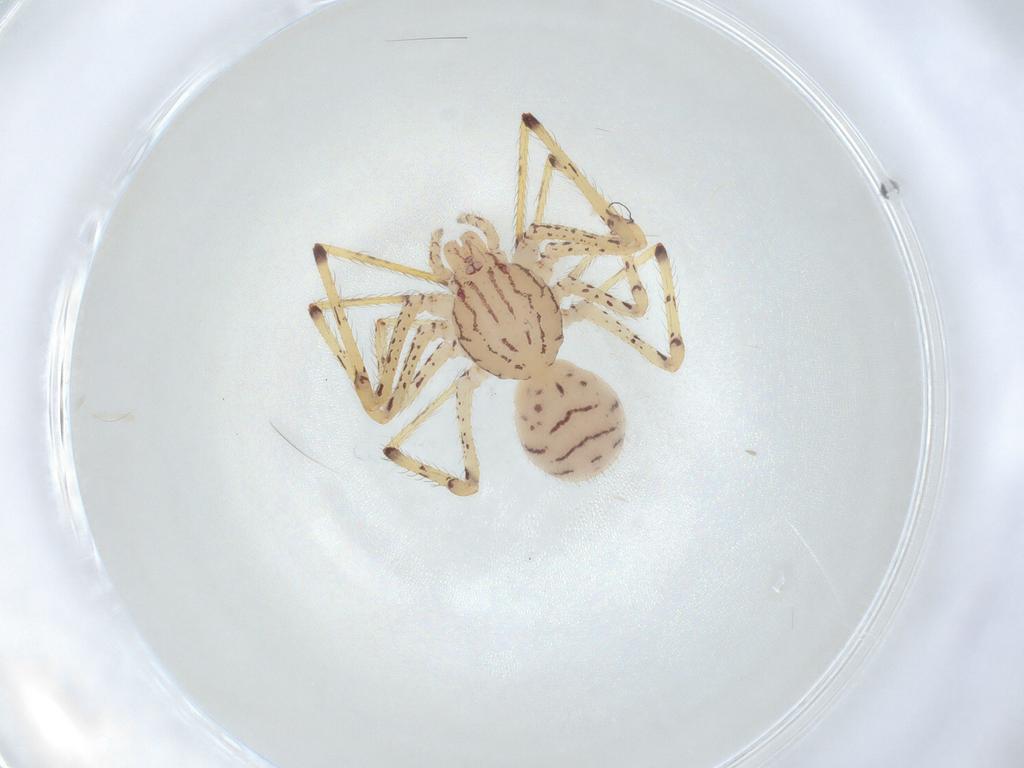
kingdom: Animalia
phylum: Arthropoda
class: Arachnida
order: Araneae
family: Scytodidae
